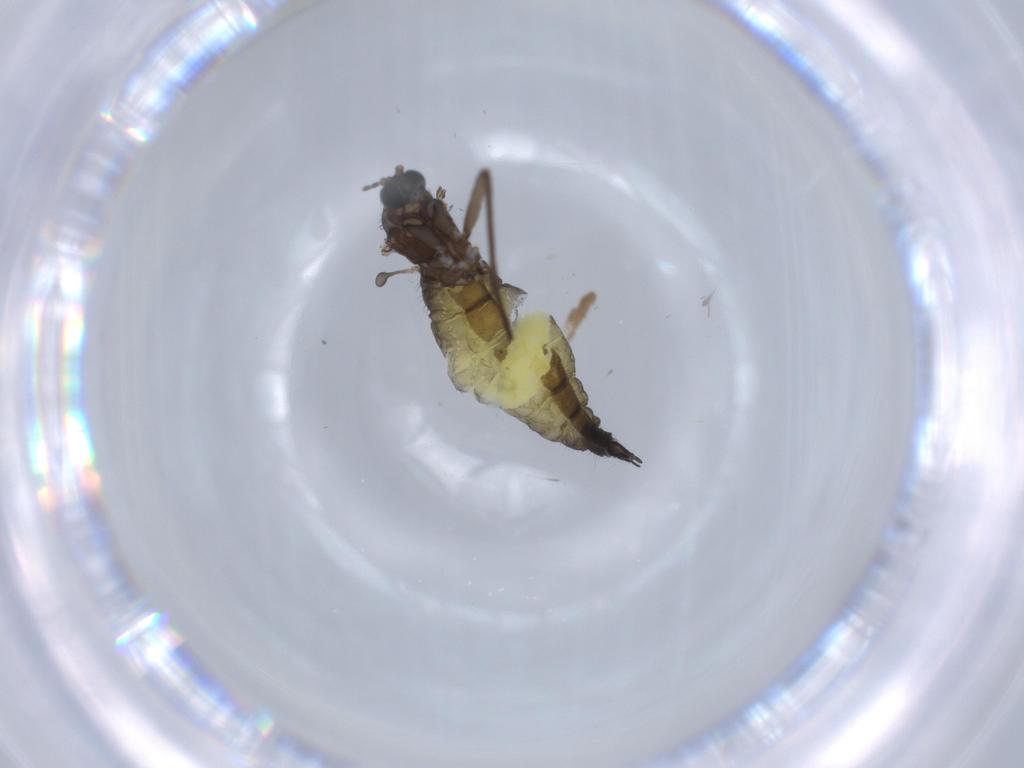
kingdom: Animalia
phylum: Arthropoda
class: Insecta
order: Diptera
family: Sciaridae
